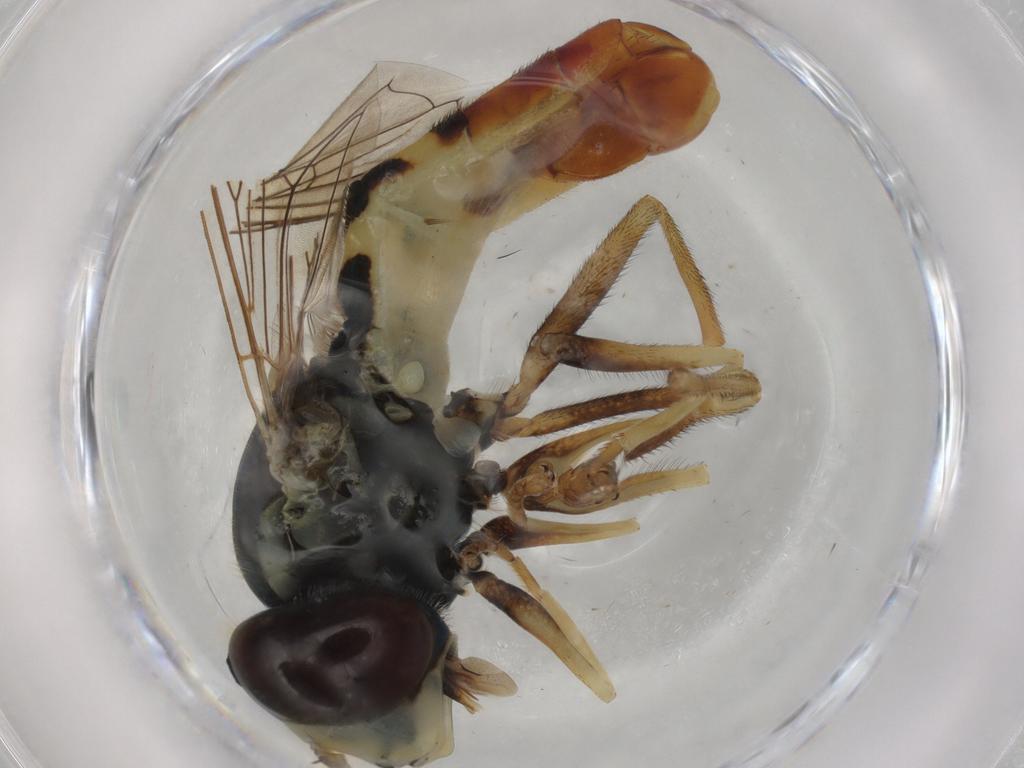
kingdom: Animalia
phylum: Arthropoda
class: Insecta
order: Diptera
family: Syrphidae
